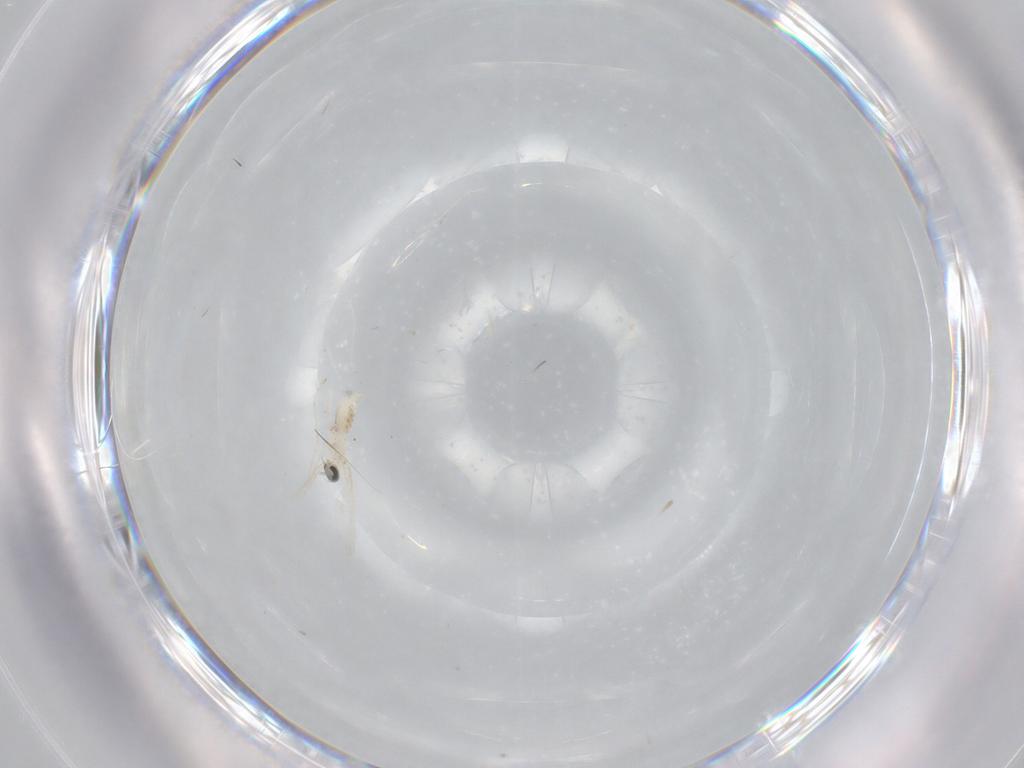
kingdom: Animalia
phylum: Arthropoda
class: Insecta
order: Diptera
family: Cecidomyiidae
